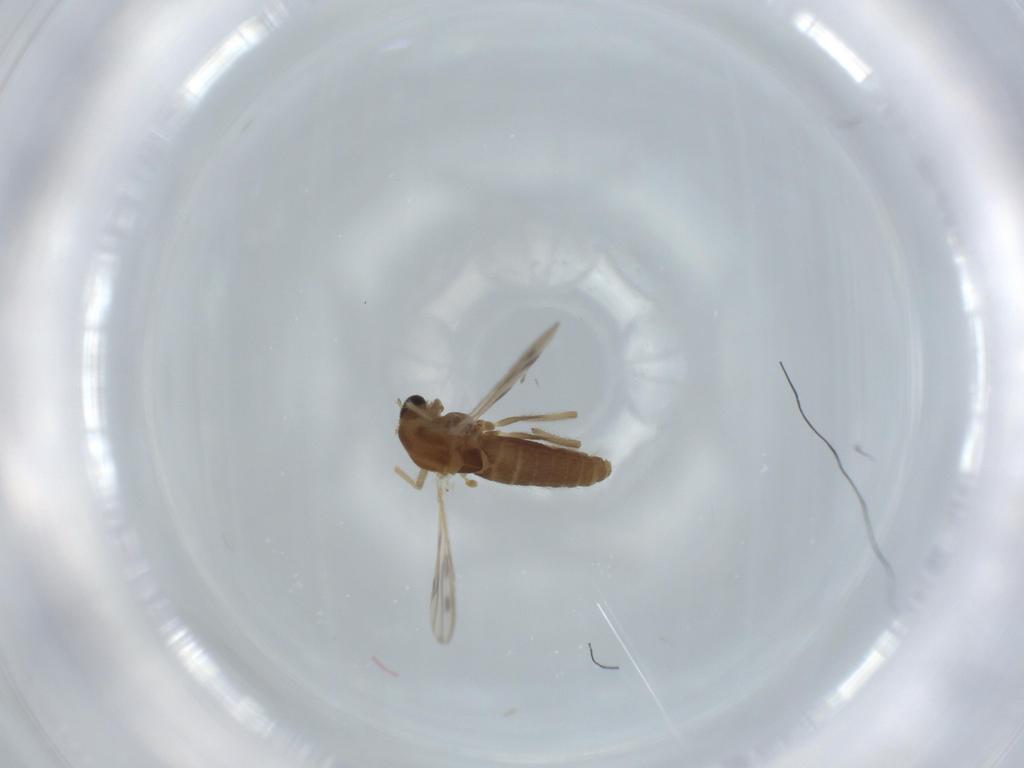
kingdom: Animalia
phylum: Arthropoda
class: Insecta
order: Diptera
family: Chironomidae
